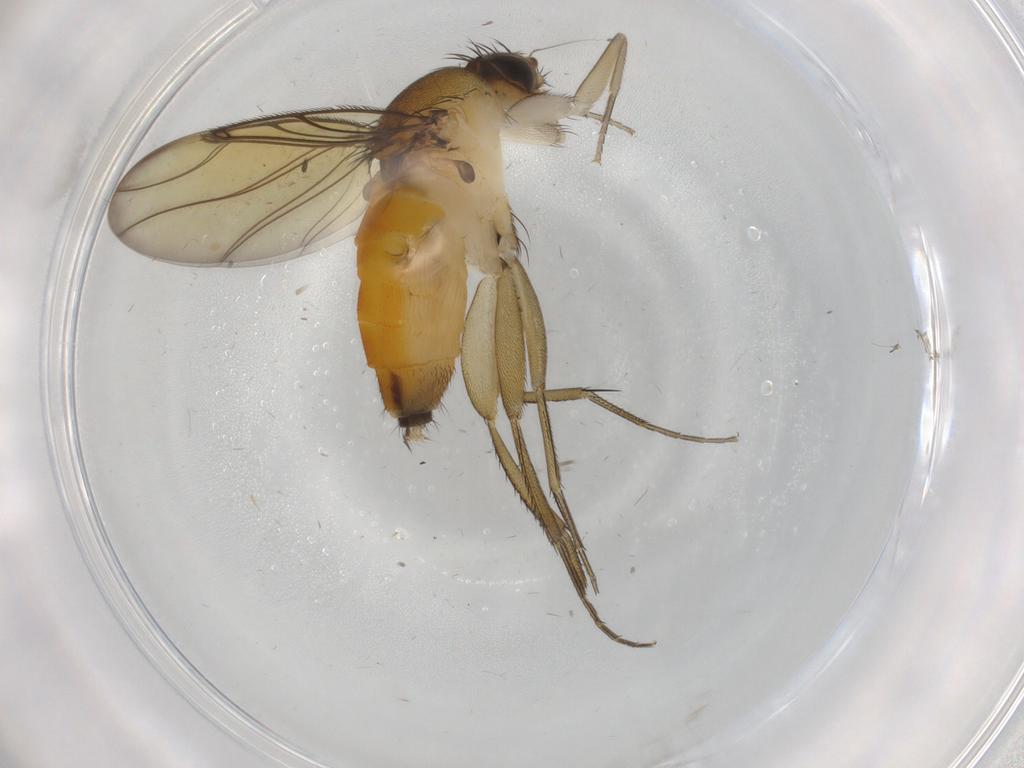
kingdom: Animalia
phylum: Arthropoda
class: Insecta
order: Diptera
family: Phoridae
